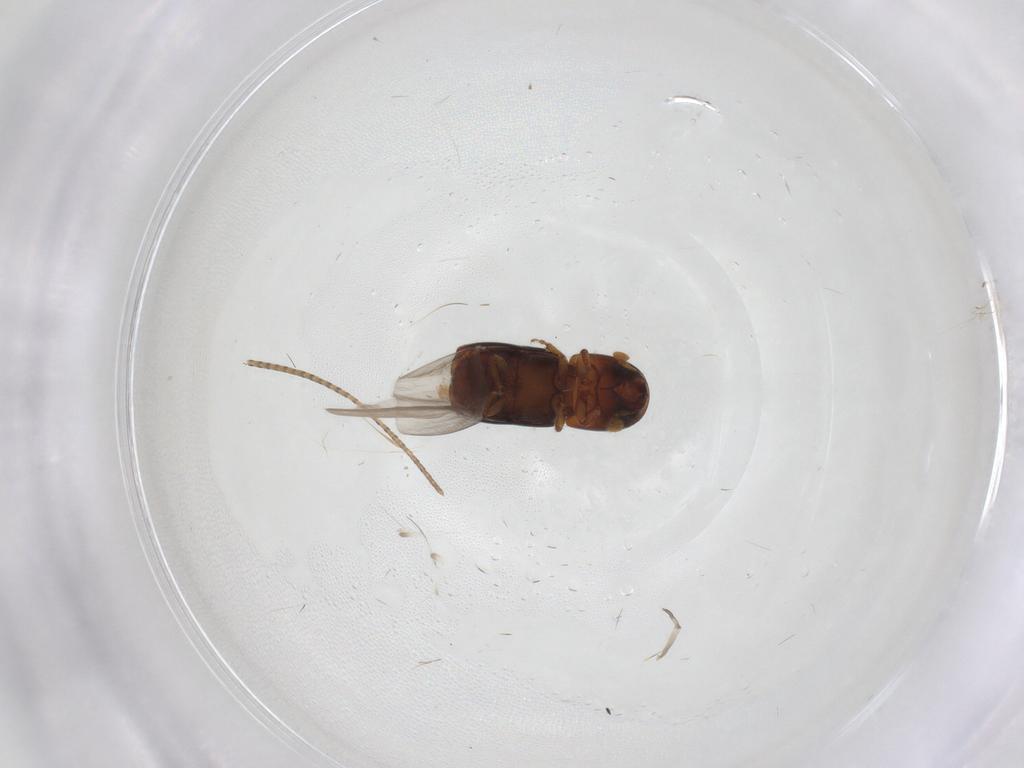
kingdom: Animalia
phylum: Arthropoda
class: Insecta
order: Coleoptera
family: Curculionidae
